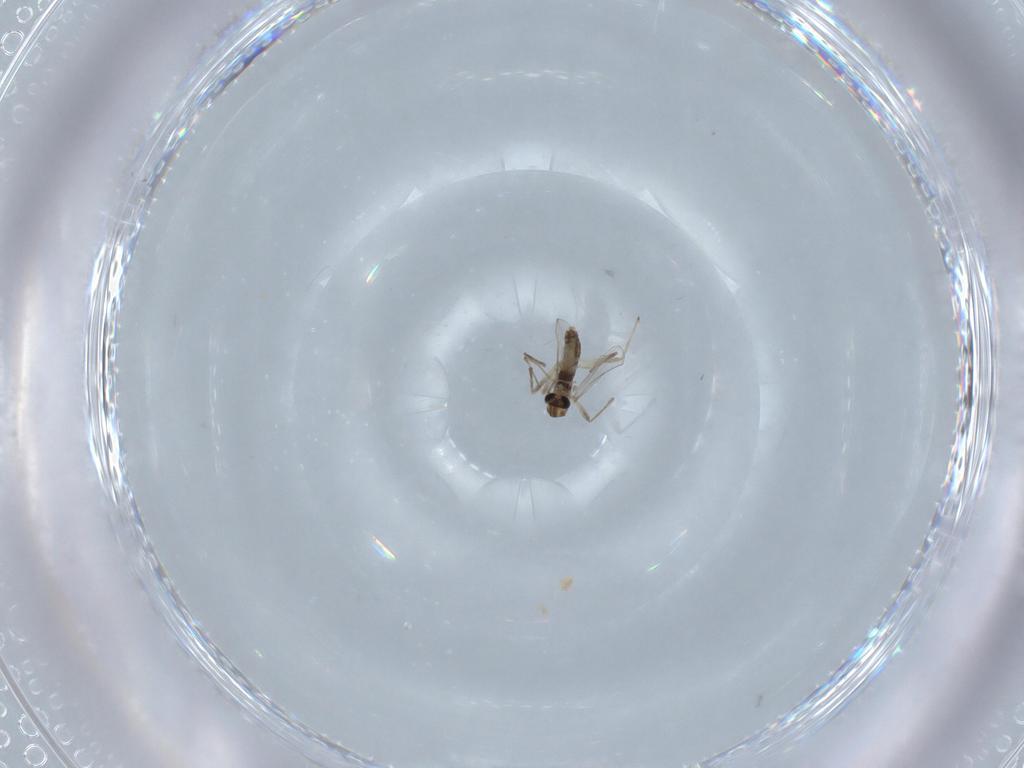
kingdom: Animalia
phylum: Arthropoda
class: Insecta
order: Diptera
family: Chironomidae
